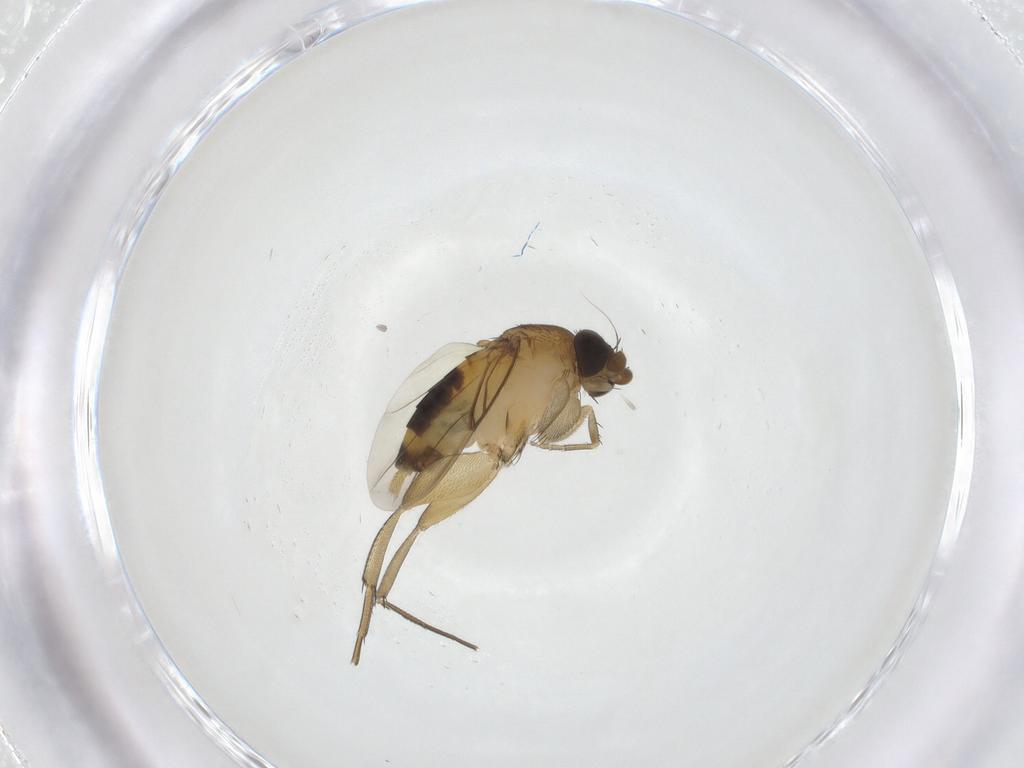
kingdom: Animalia
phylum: Arthropoda
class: Insecta
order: Diptera
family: Phoridae
